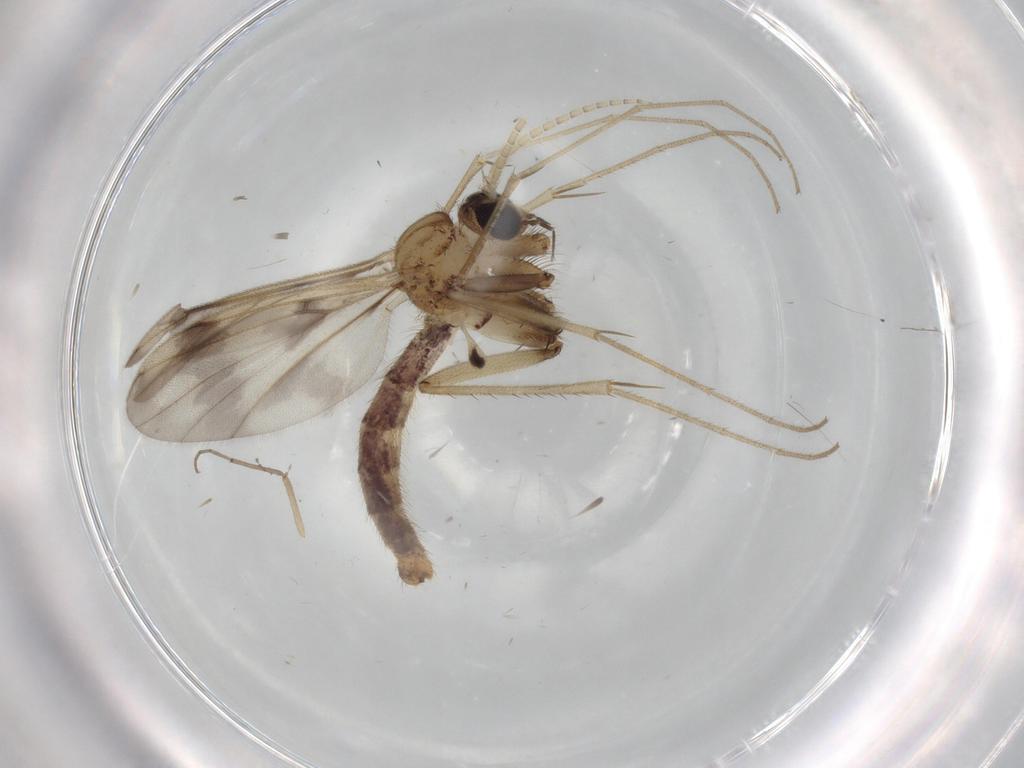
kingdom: Animalia
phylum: Arthropoda
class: Insecta
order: Diptera
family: Mycetophilidae
